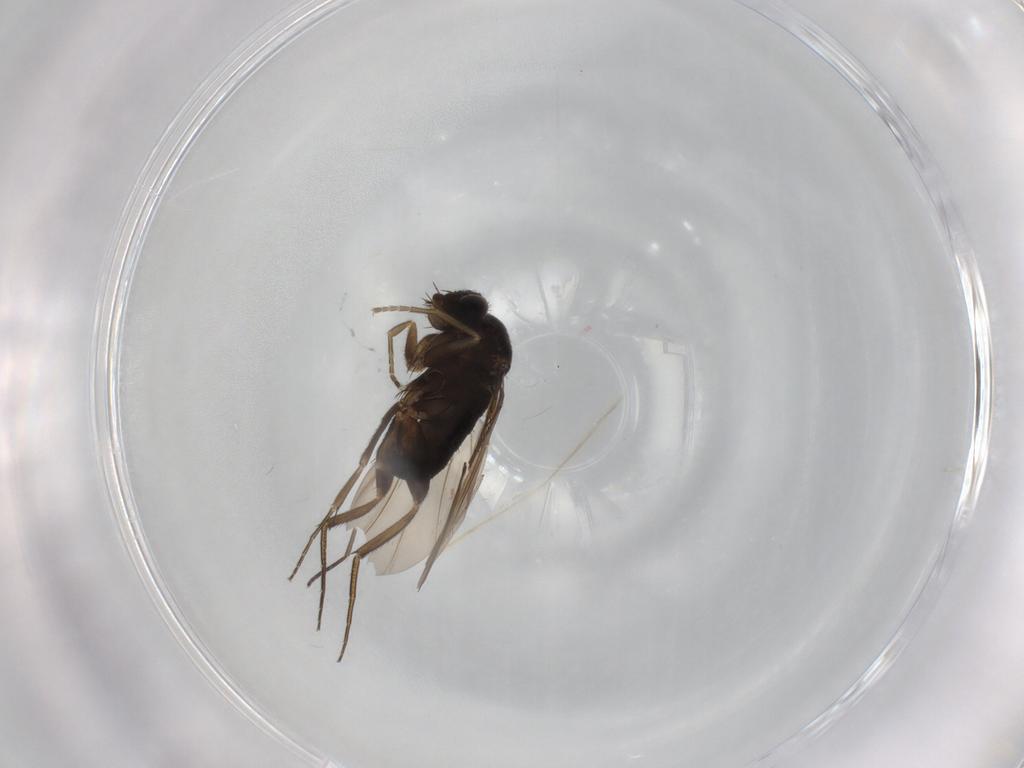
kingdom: Animalia
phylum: Arthropoda
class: Insecta
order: Diptera
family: Phoridae
